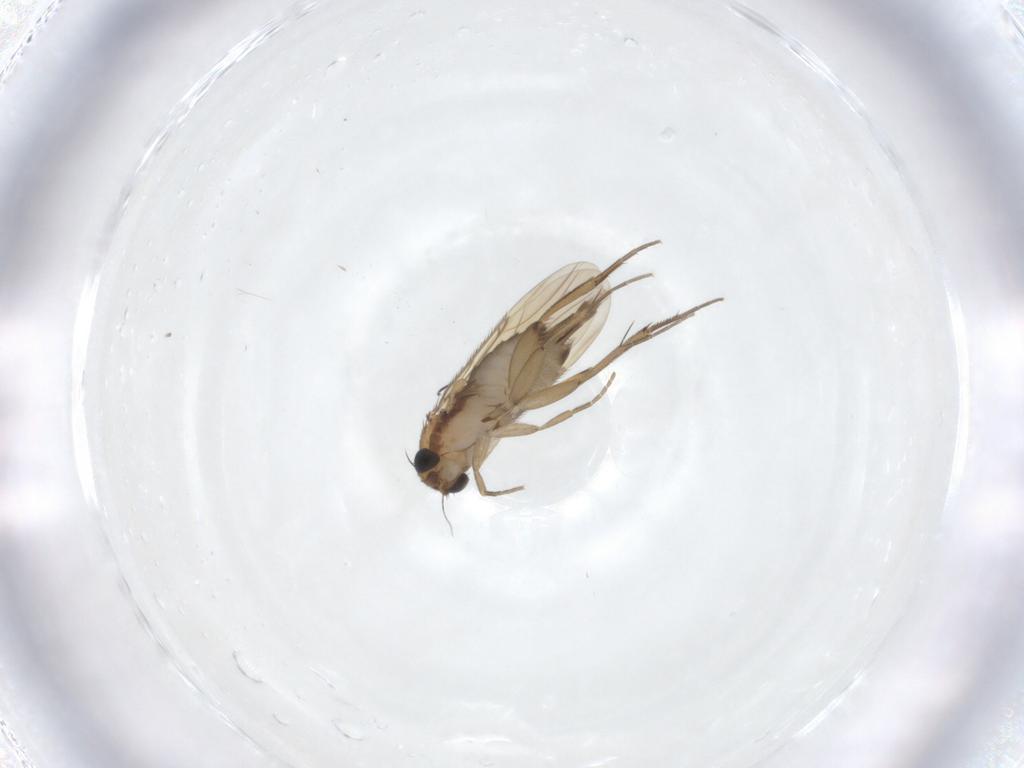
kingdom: Animalia
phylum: Arthropoda
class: Insecta
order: Diptera
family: Phoridae
